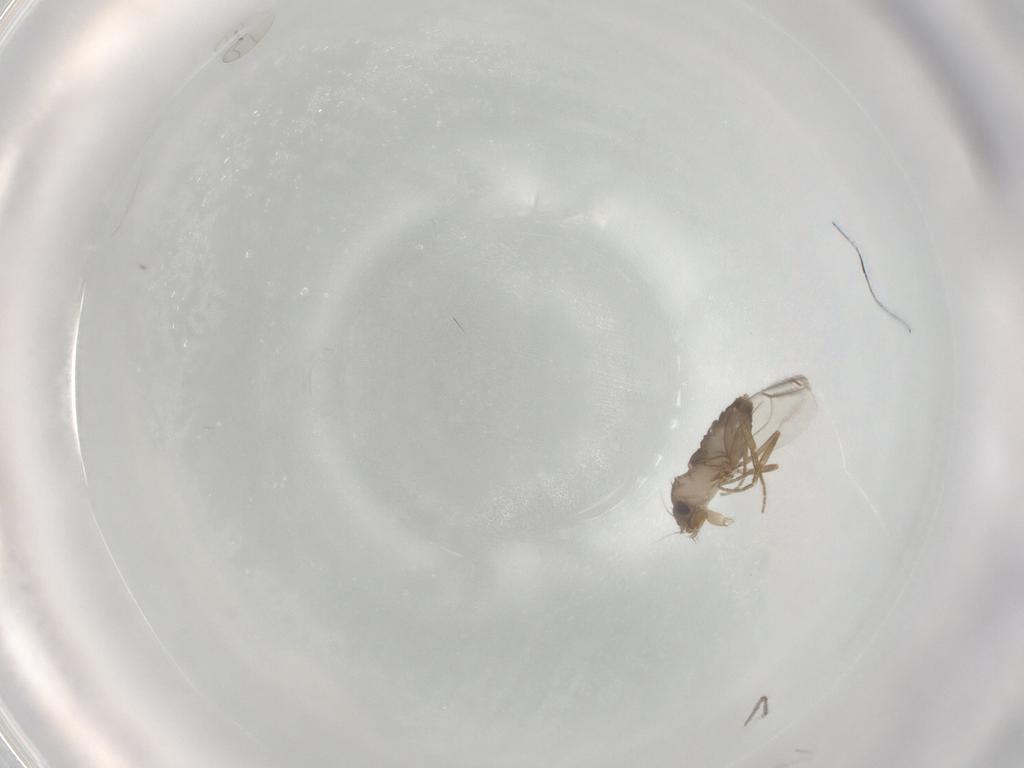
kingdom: Animalia
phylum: Arthropoda
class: Insecta
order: Diptera
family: Phoridae
